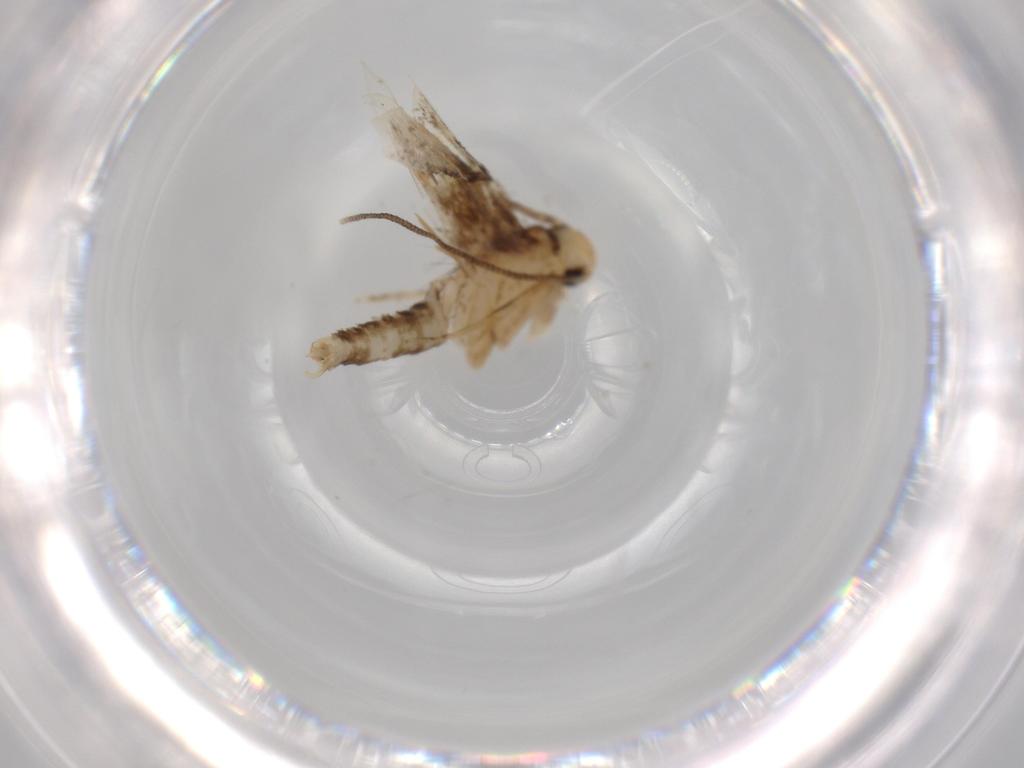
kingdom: Animalia
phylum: Arthropoda
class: Insecta
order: Lepidoptera
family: Tineidae
